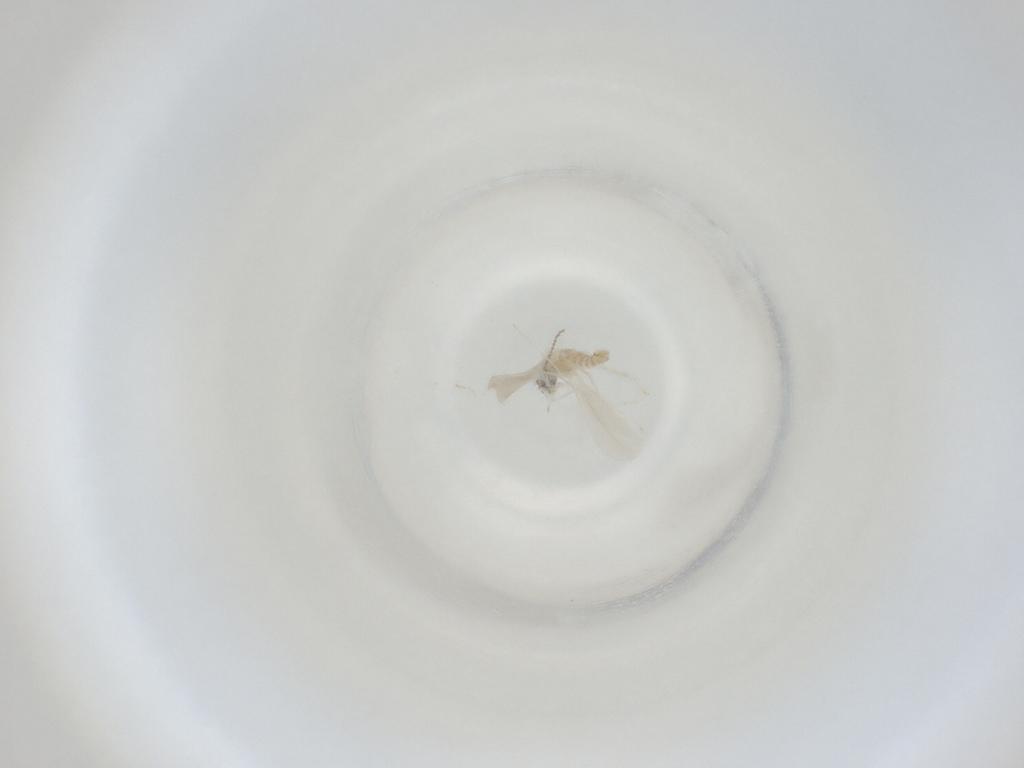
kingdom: Animalia
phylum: Arthropoda
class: Insecta
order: Diptera
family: Cecidomyiidae
